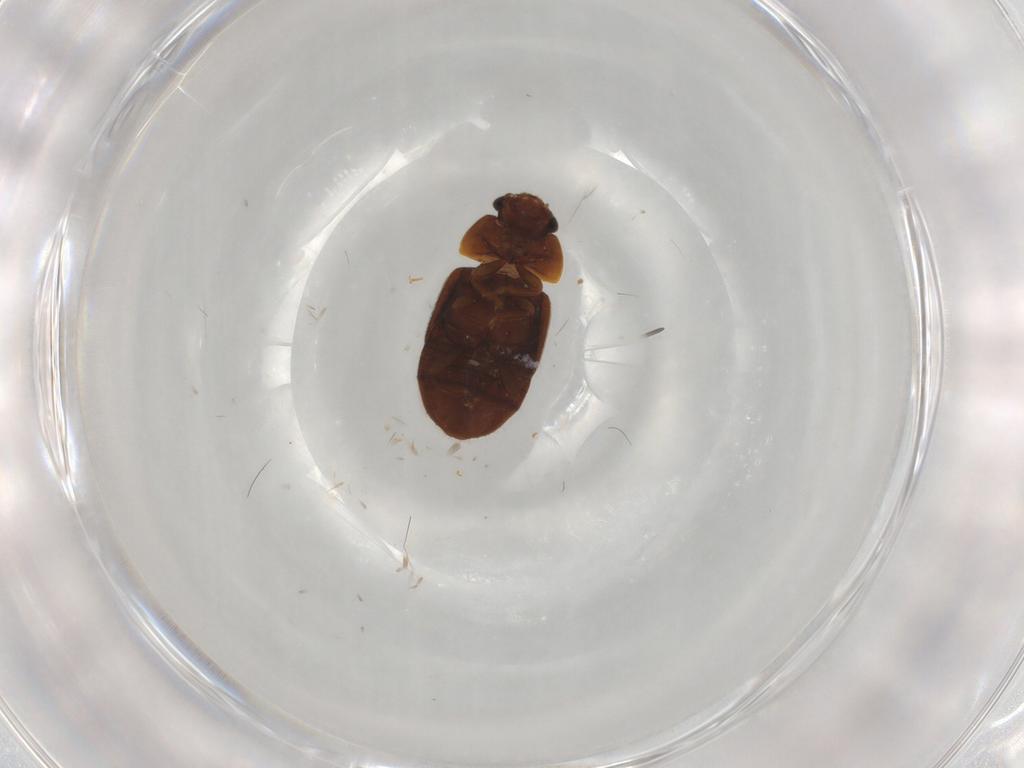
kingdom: Animalia
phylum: Arthropoda
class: Insecta
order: Coleoptera
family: Nitidulidae
